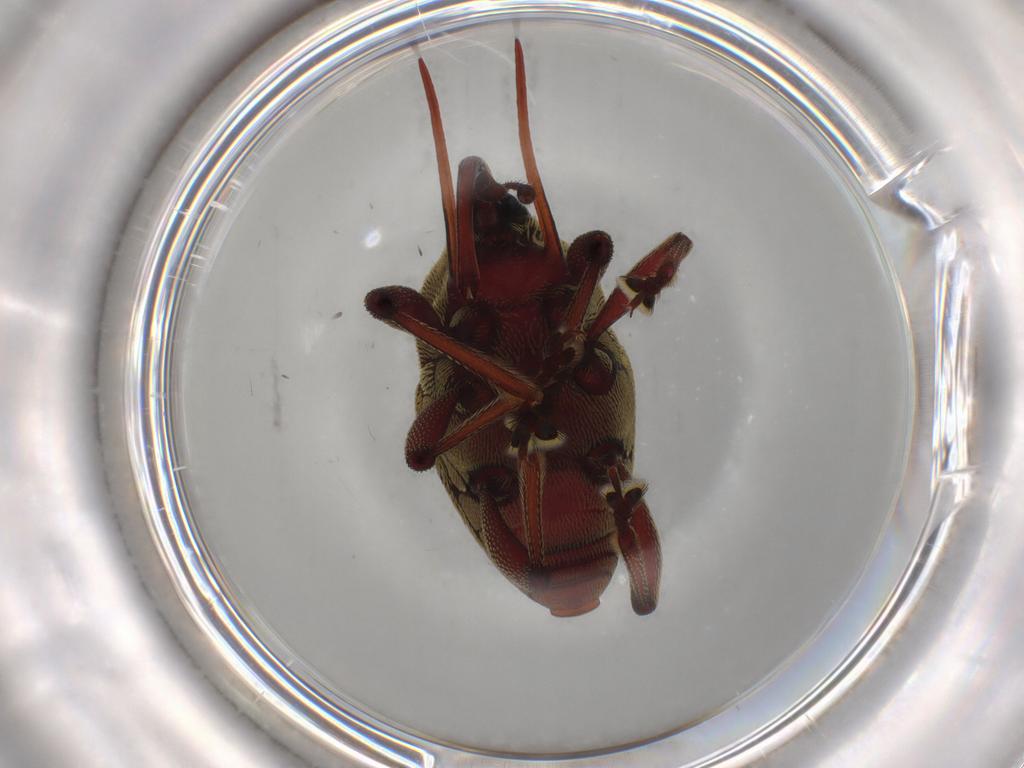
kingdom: Animalia
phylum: Arthropoda
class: Insecta
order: Coleoptera
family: Curculionidae
